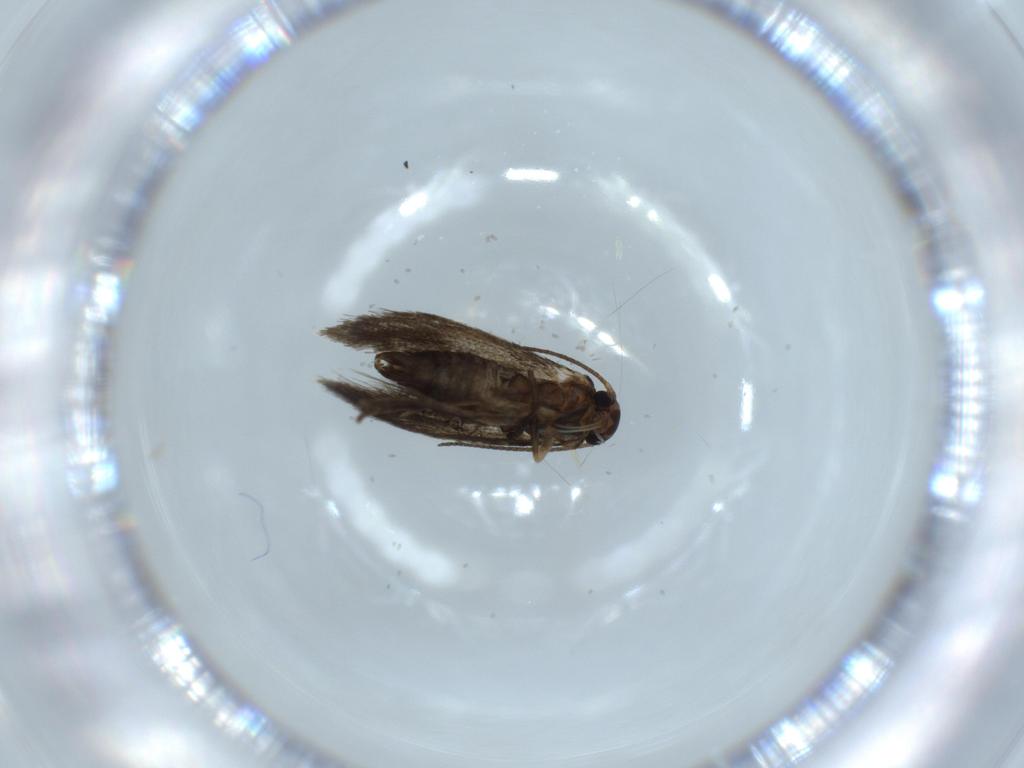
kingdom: Animalia
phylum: Arthropoda
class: Insecta
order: Lepidoptera
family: Heliozelidae
